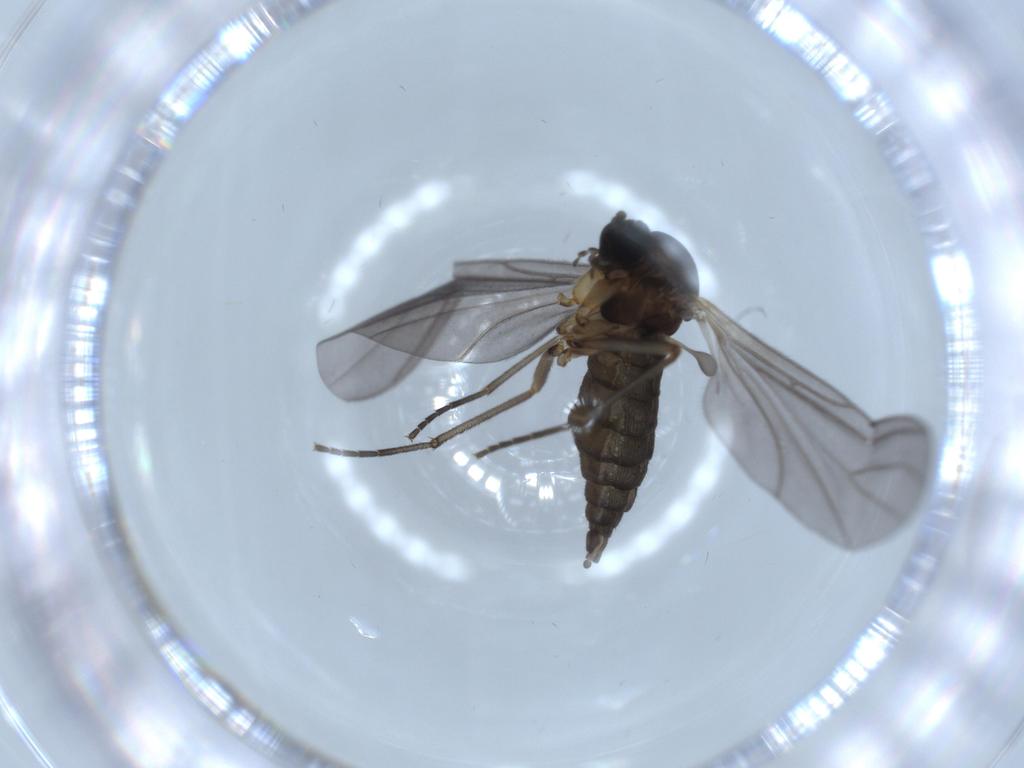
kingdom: Animalia
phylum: Arthropoda
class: Insecta
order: Diptera
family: Sciaridae
